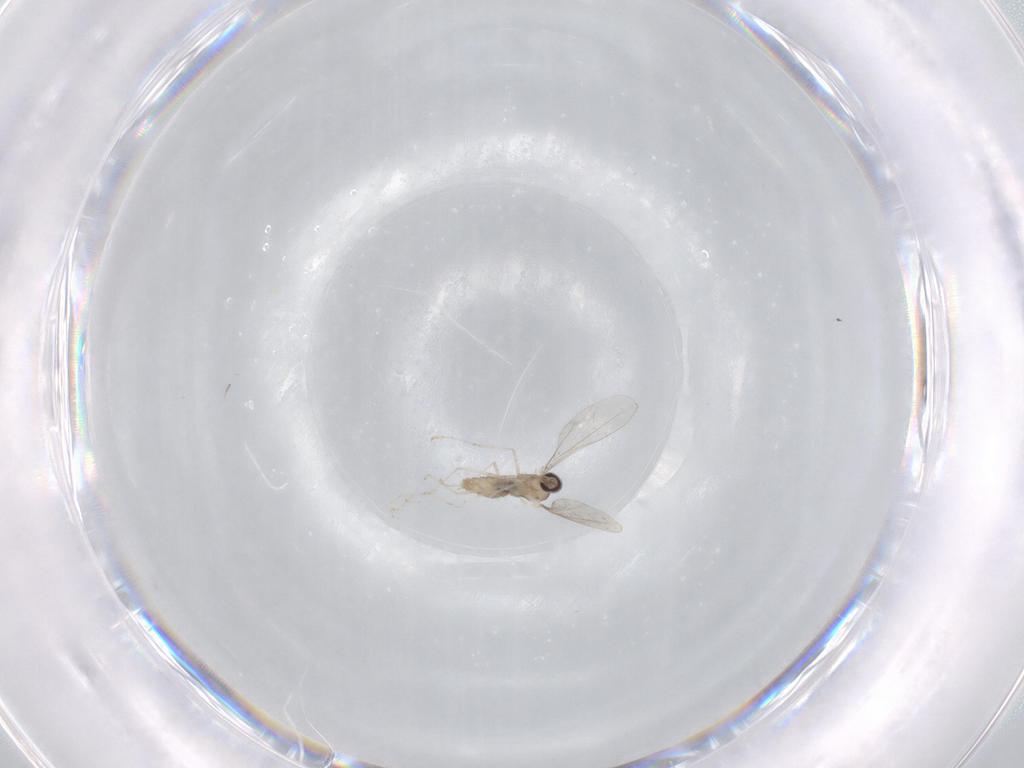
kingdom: Animalia
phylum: Arthropoda
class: Insecta
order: Diptera
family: Cecidomyiidae
